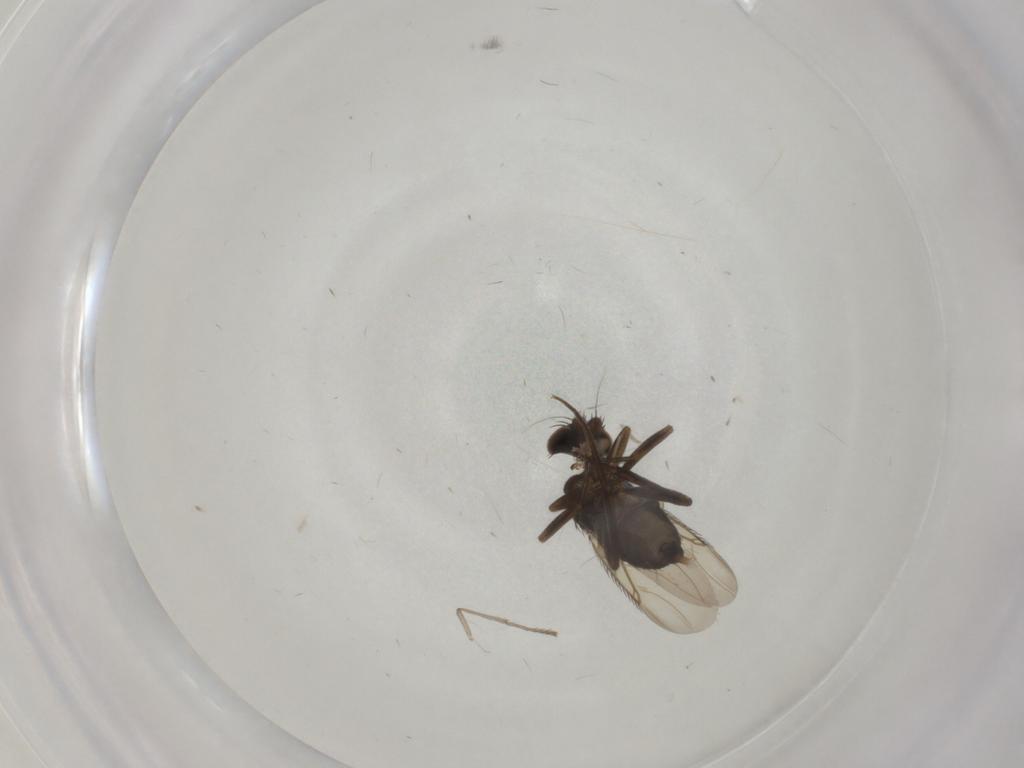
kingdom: Animalia
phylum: Arthropoda
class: Insecta
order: Diptera
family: Phoridae
